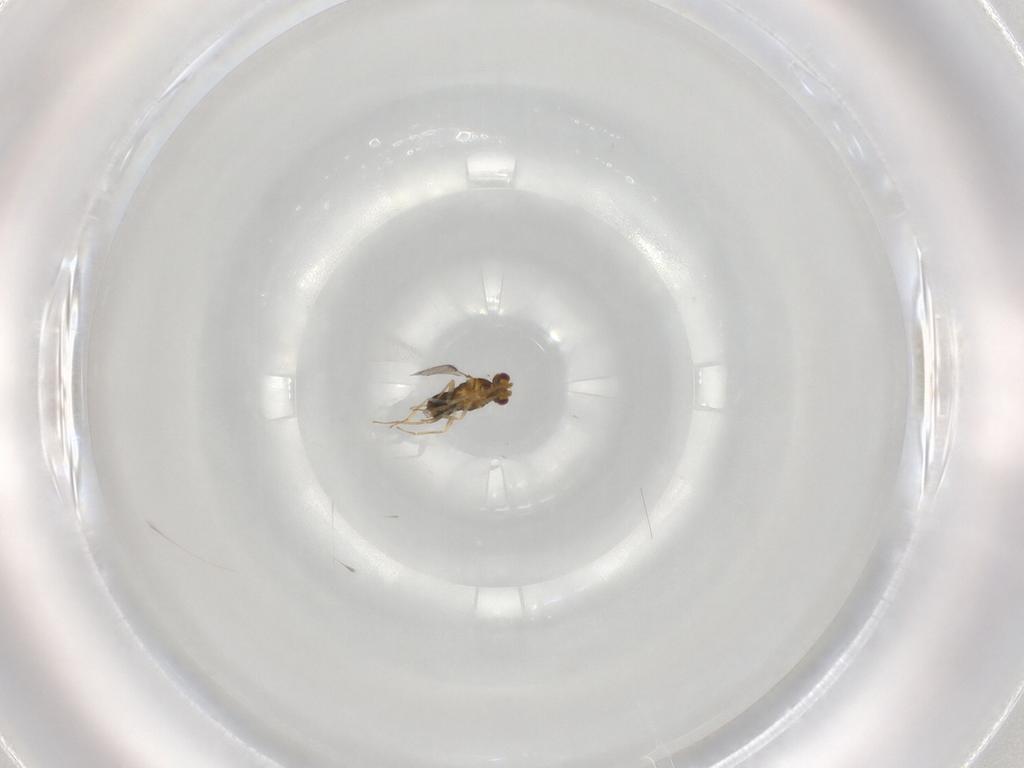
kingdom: Animalia
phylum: Arthropoda
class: Insecta
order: Hymenoptera
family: Aphelinidae
